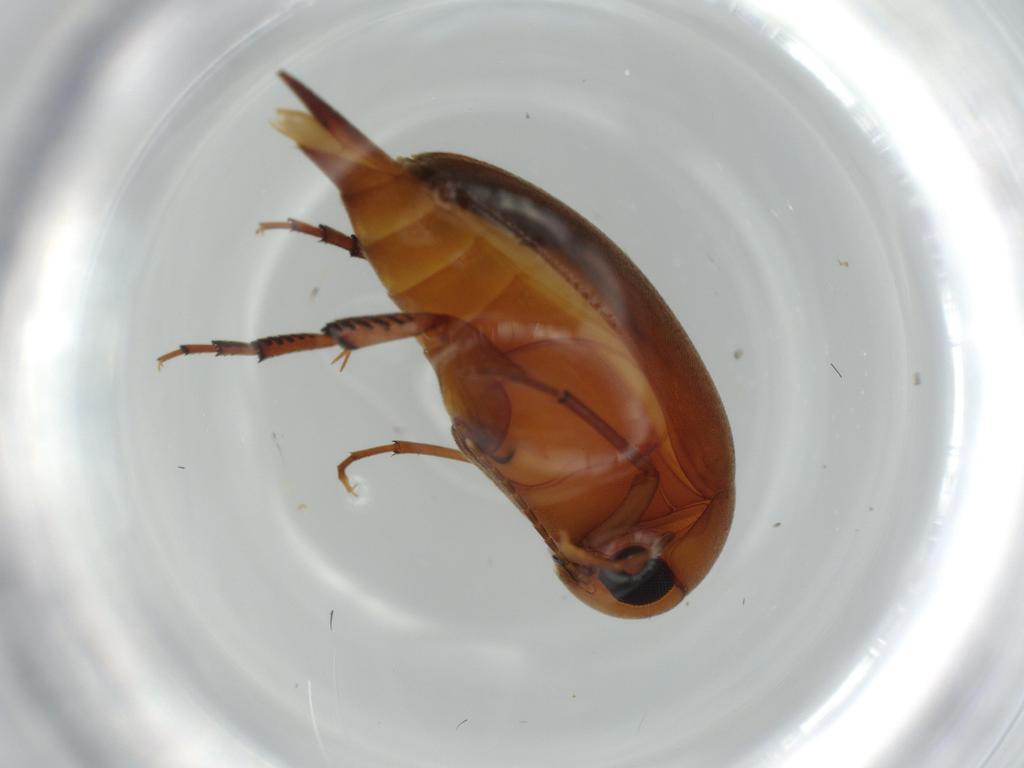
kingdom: Animalia
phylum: Arthropoda
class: Insecta
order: Coleoptera
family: Mordellidae
